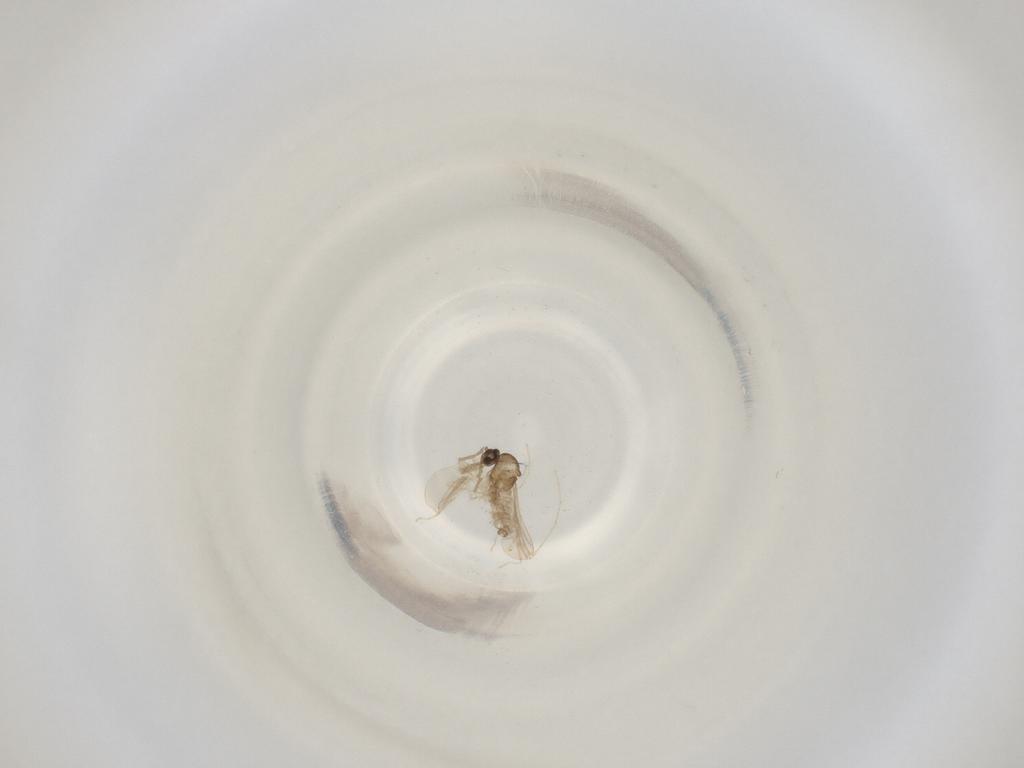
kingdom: Animalia
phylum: Arthropoda
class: Insecta
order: Diptera
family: Cecidomyiidae
